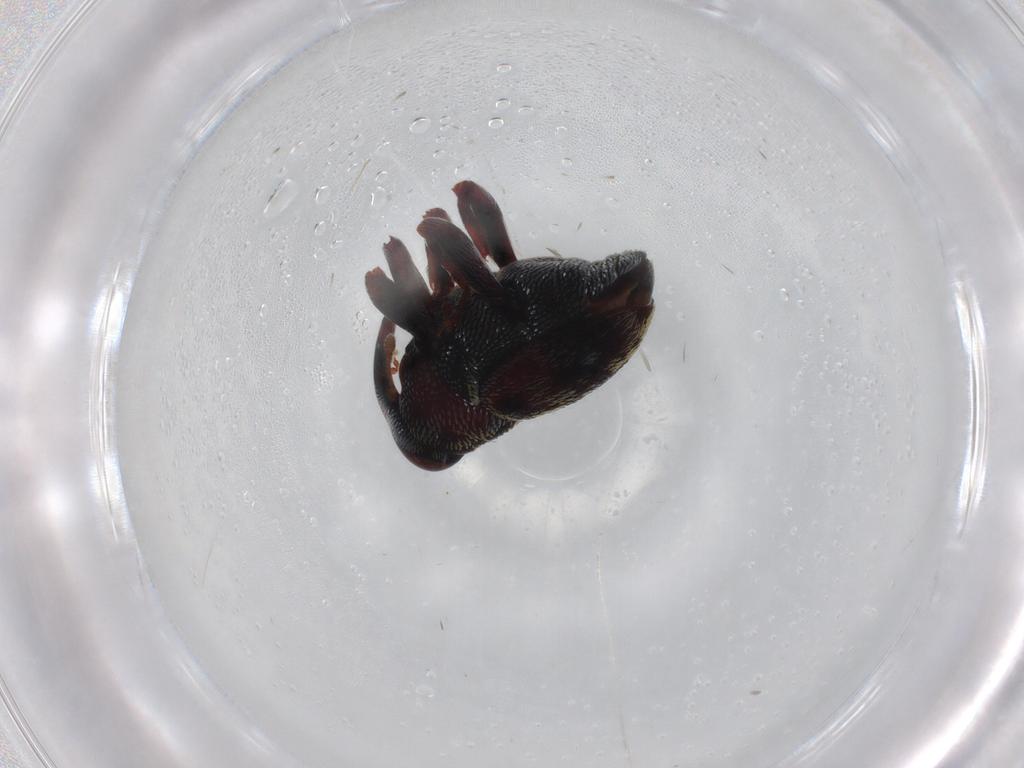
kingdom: Animalia
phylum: Arthropoda
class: Insecta
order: Coleoptera
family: Curculionidae
